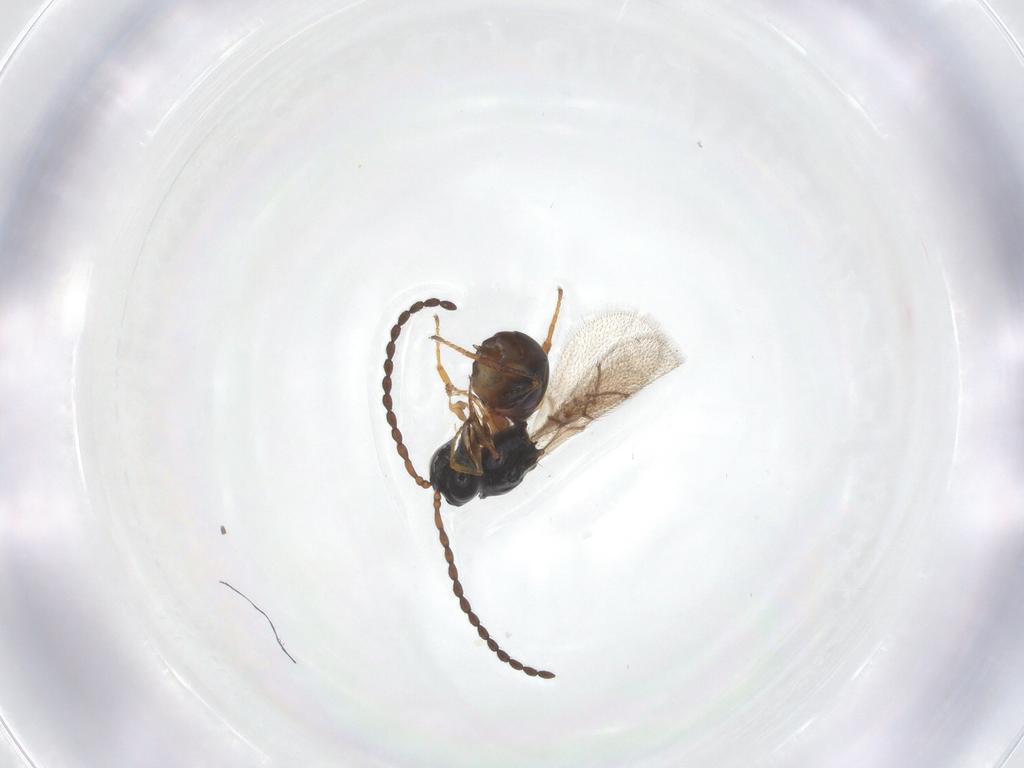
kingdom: Animalia
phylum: Arthropoda
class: Insecta
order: Hymenoptera
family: Figitidae
